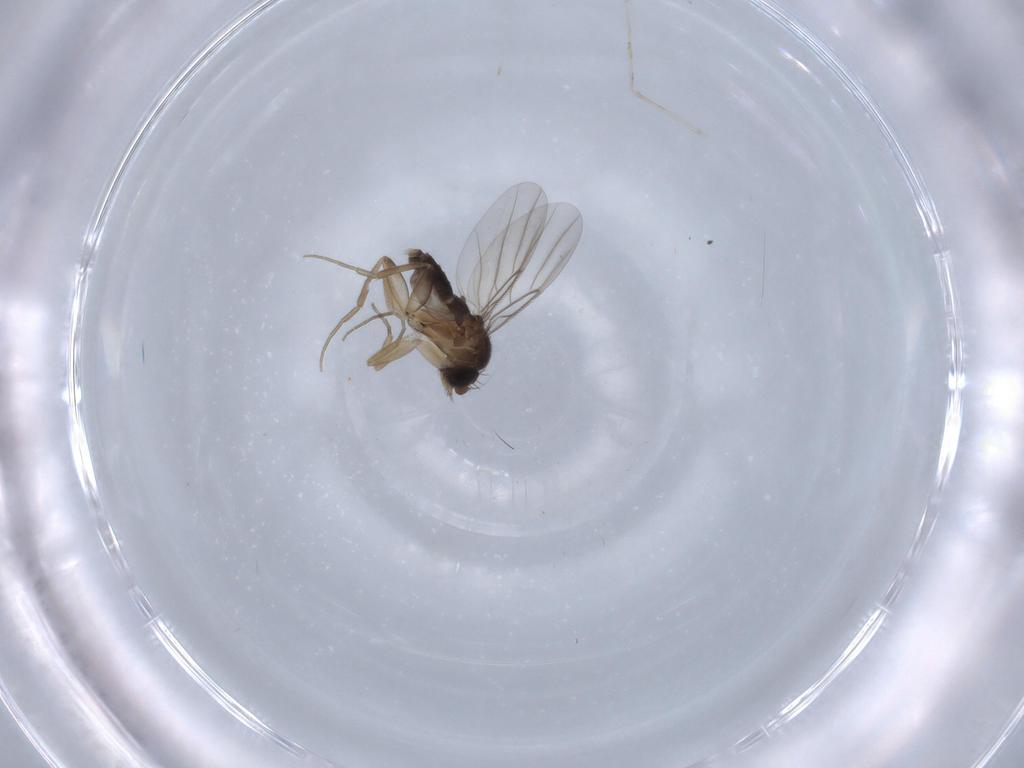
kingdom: Animalia
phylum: Arthropoda
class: Insecta
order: Diptera
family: Phoridae
